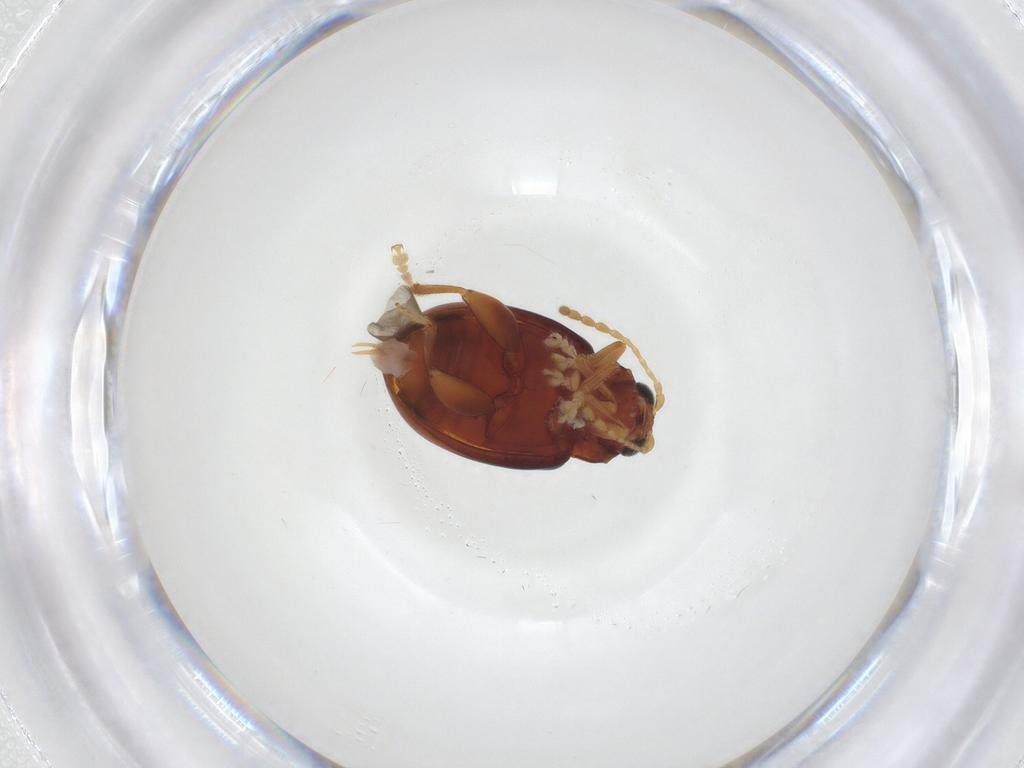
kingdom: Animalia
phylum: Arthropoda
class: Insecta
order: Coleoptera
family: Chrysomelidae
